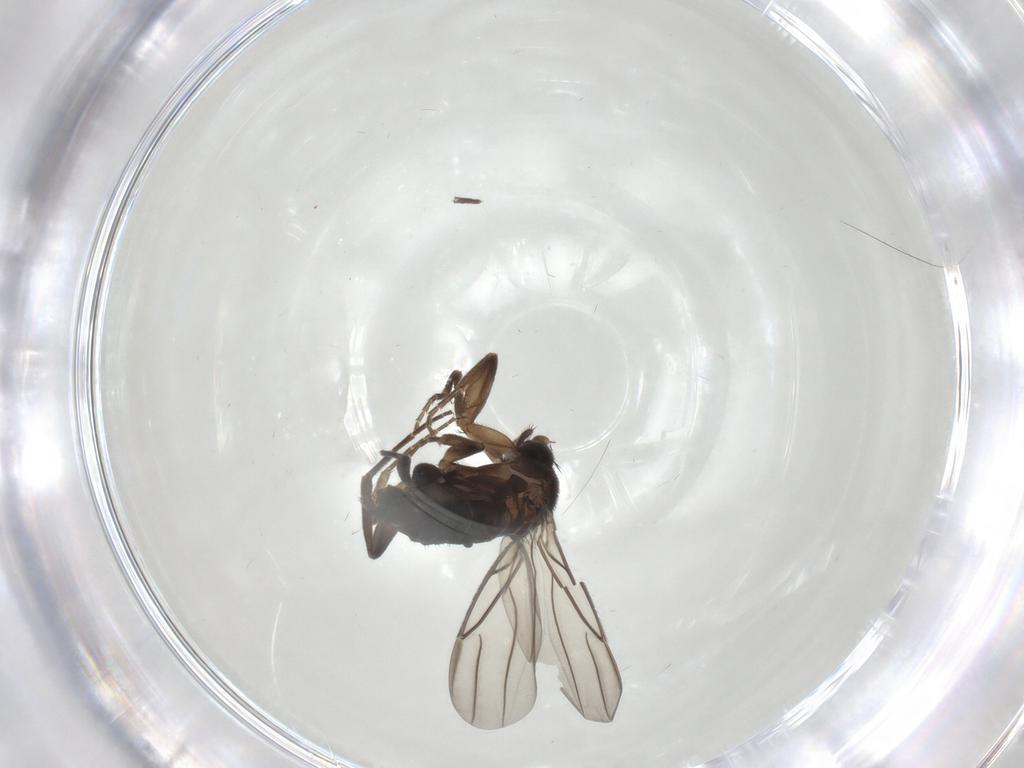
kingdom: Animalia
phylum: Arthropoda
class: Insecta
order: Diptera
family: Cecidomyiidae
